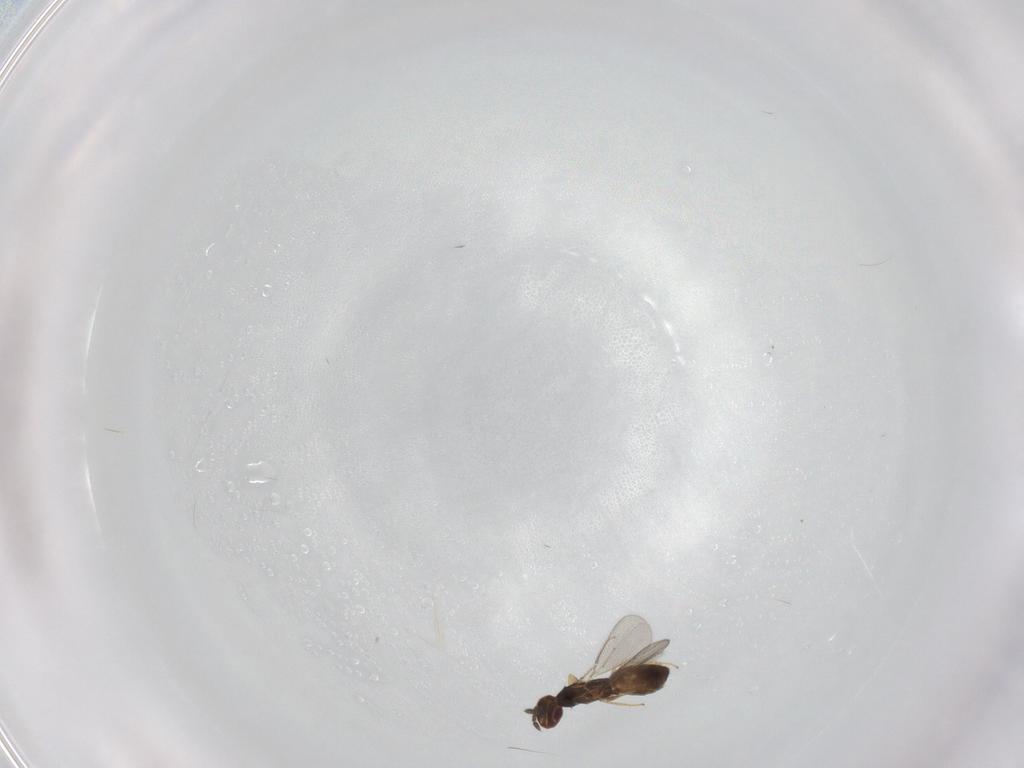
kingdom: Animalia
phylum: Arthropoda
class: Insecta
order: Hymenoptera
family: Eulophidae
